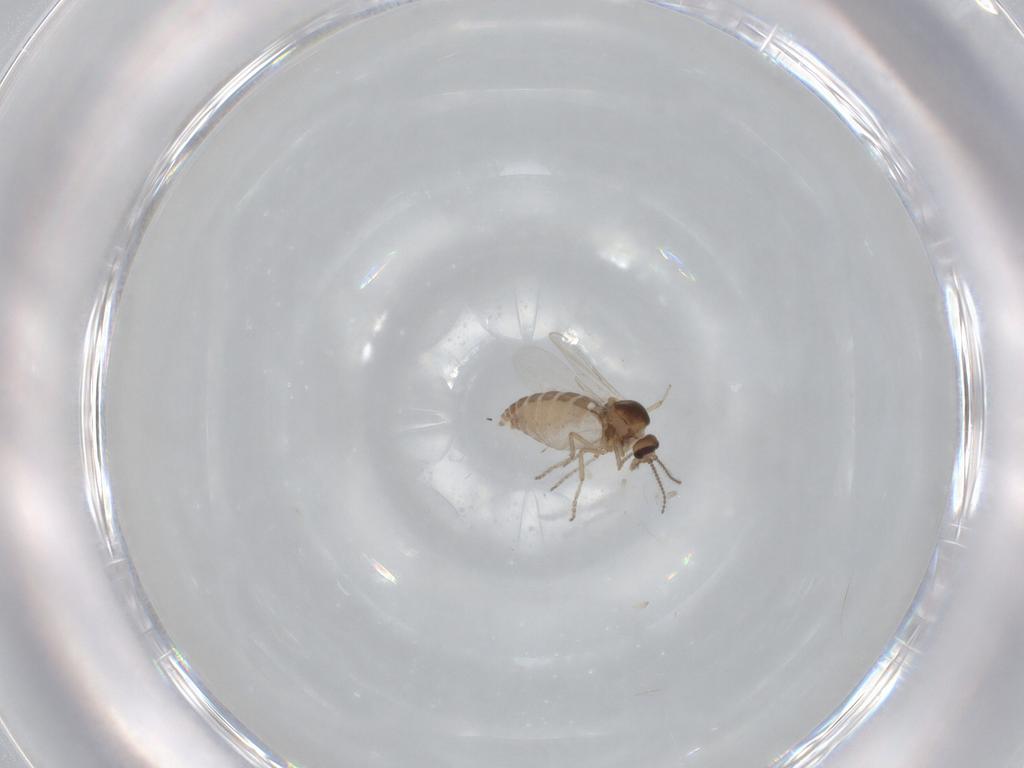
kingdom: Animalia
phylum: Arthropoda
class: Insecta
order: Diptera
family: Ceratopogonidae
